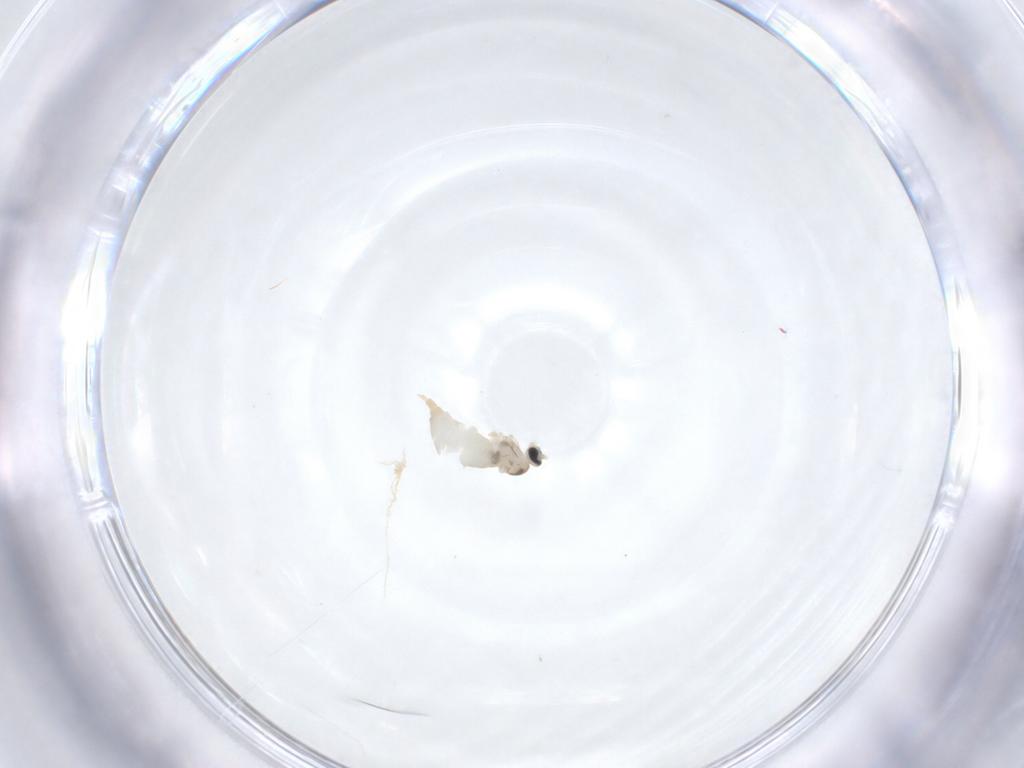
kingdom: Animalia
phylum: Arthropoda
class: Insecta
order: Diptera
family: Ceratopogonidae
